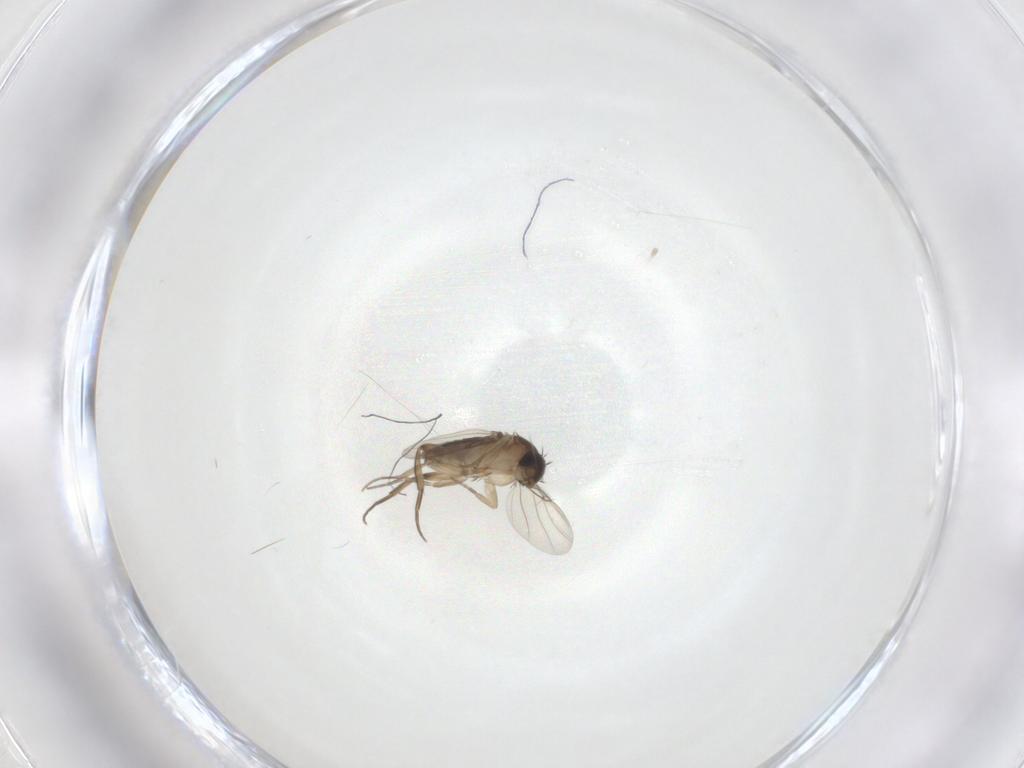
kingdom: Animalia
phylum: Arthropoda
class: Insecta
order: Diptera
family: Phoridae
